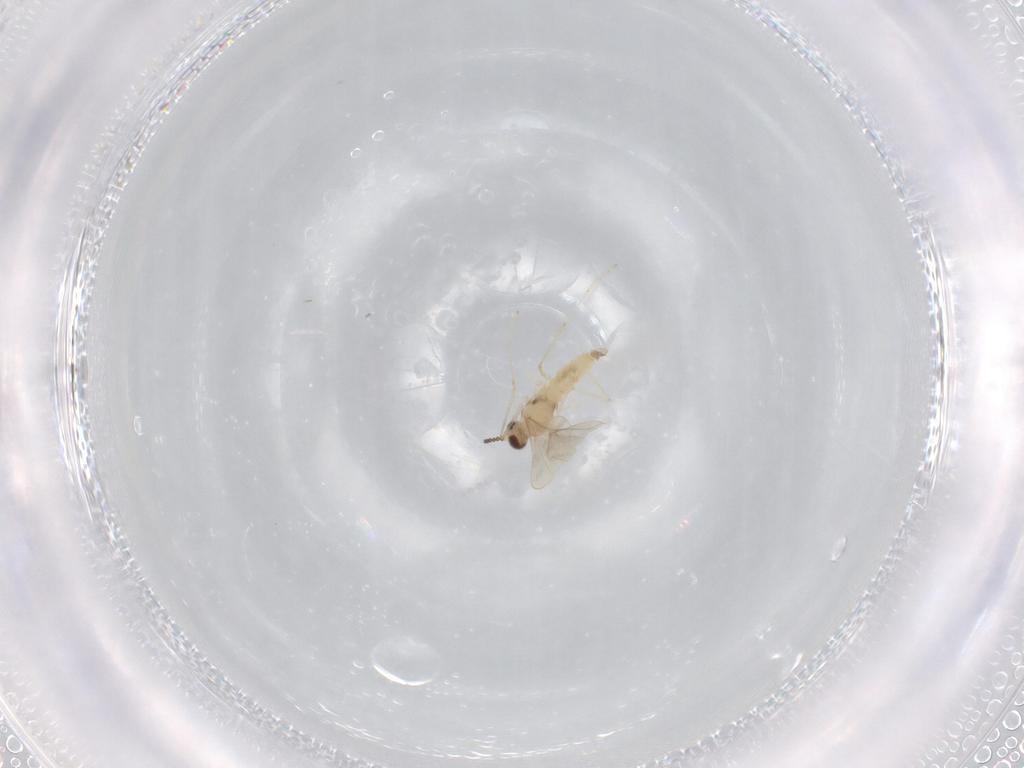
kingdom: Animalia
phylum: Arthropoda
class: Insecta
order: Diptera
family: Cecidomyiidae
